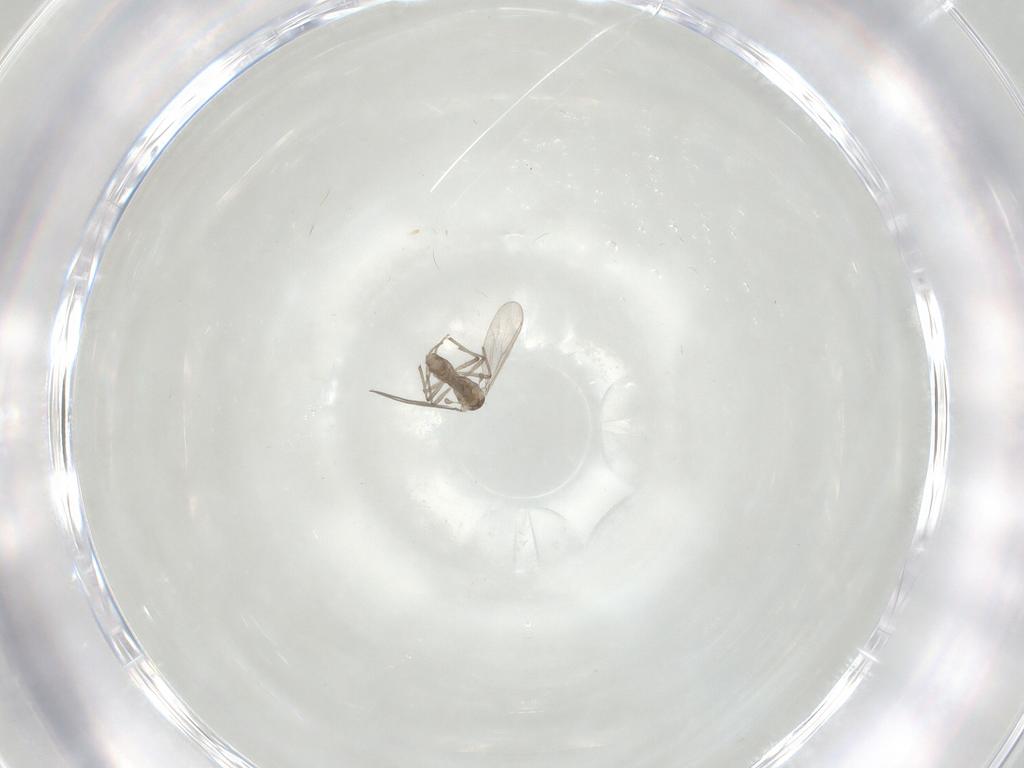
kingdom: Animalia
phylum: Arthropoda
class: Insecta
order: Diptera
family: Chironomidae
